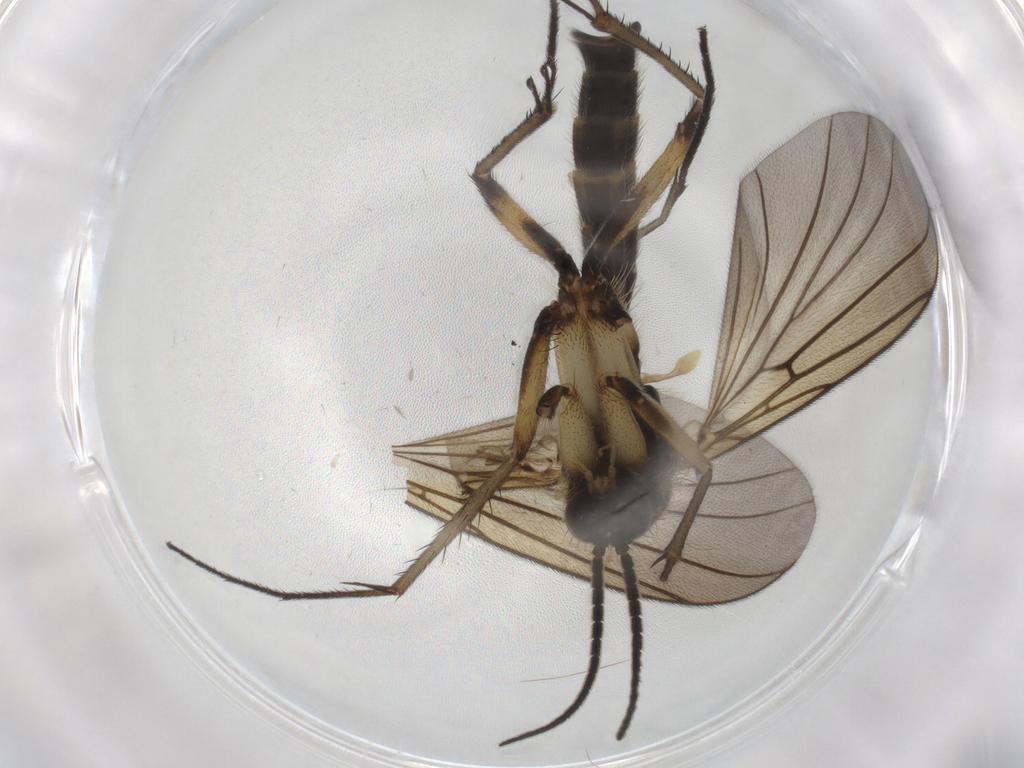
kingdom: Animalia
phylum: Arthropoda
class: Insecta
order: Diptera
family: Mycetophilidae
